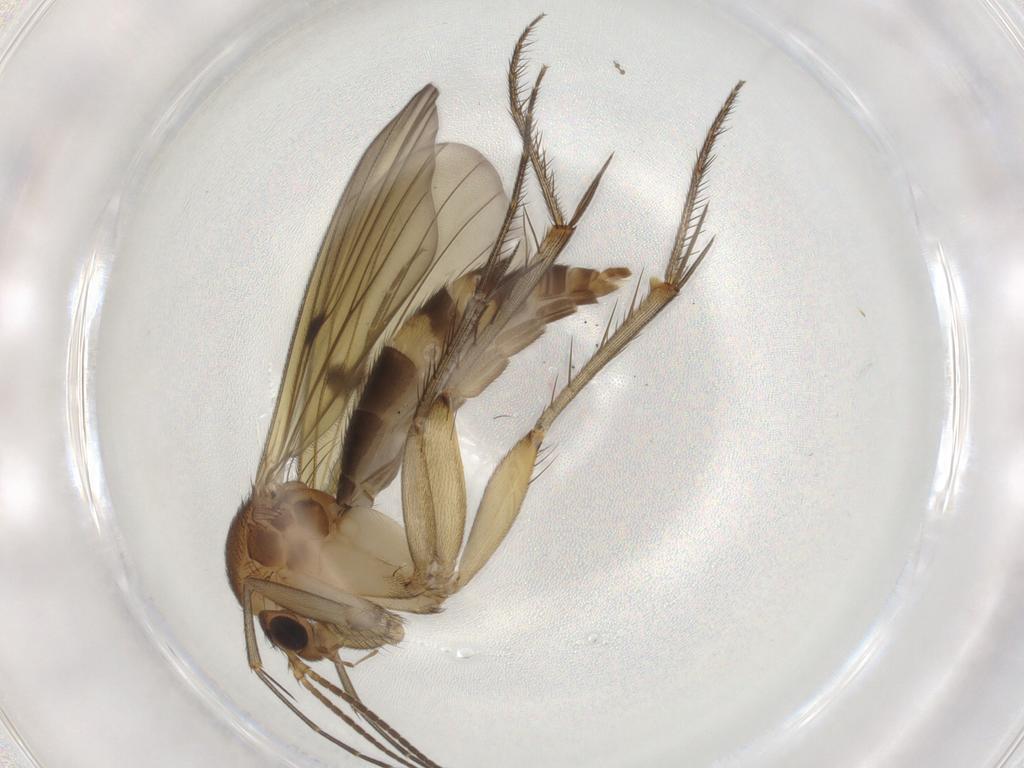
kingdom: Animalia
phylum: Arthropoda
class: Insecta
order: Diptera
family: Mycetophilidae
